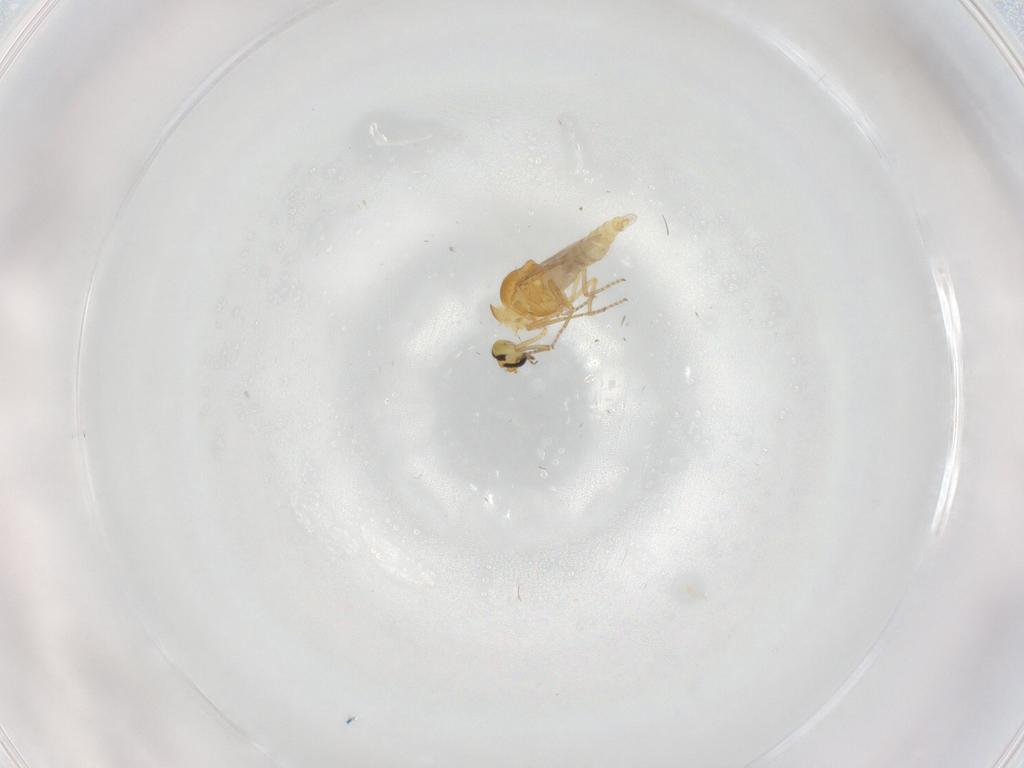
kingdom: Animalia
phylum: Arthropoda
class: Insecta
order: Diptera
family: Ceratopogonidae
